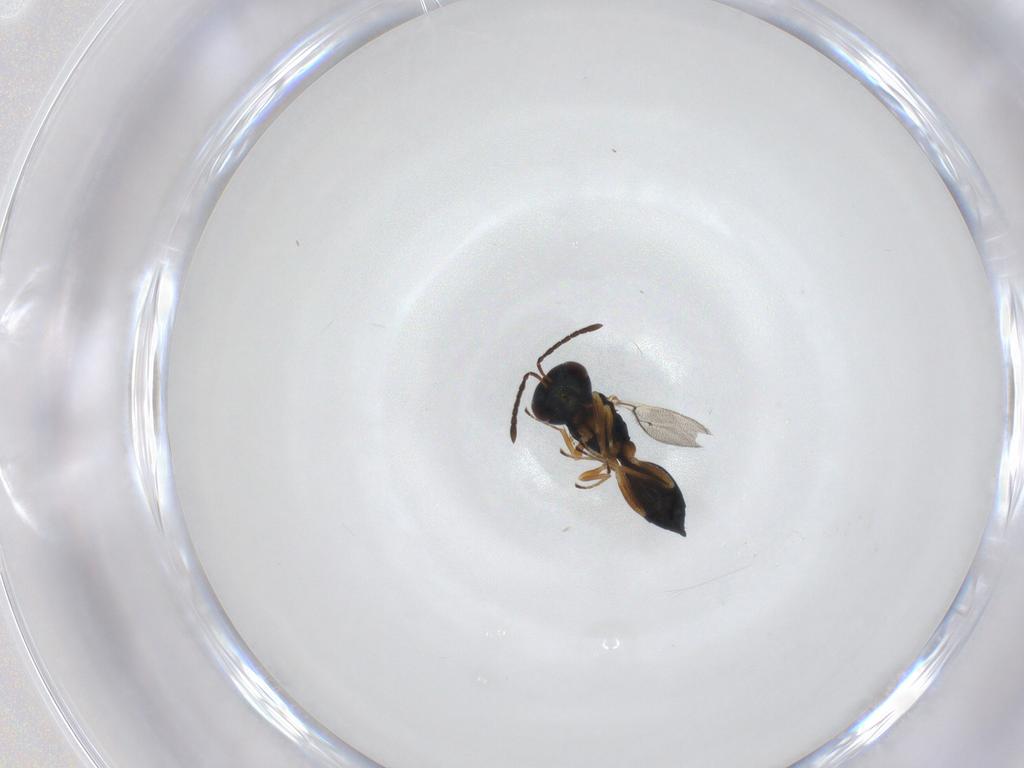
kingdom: Animalia
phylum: Arthropoda
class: Insecta
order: Hymenoptera
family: Pteromalidae
